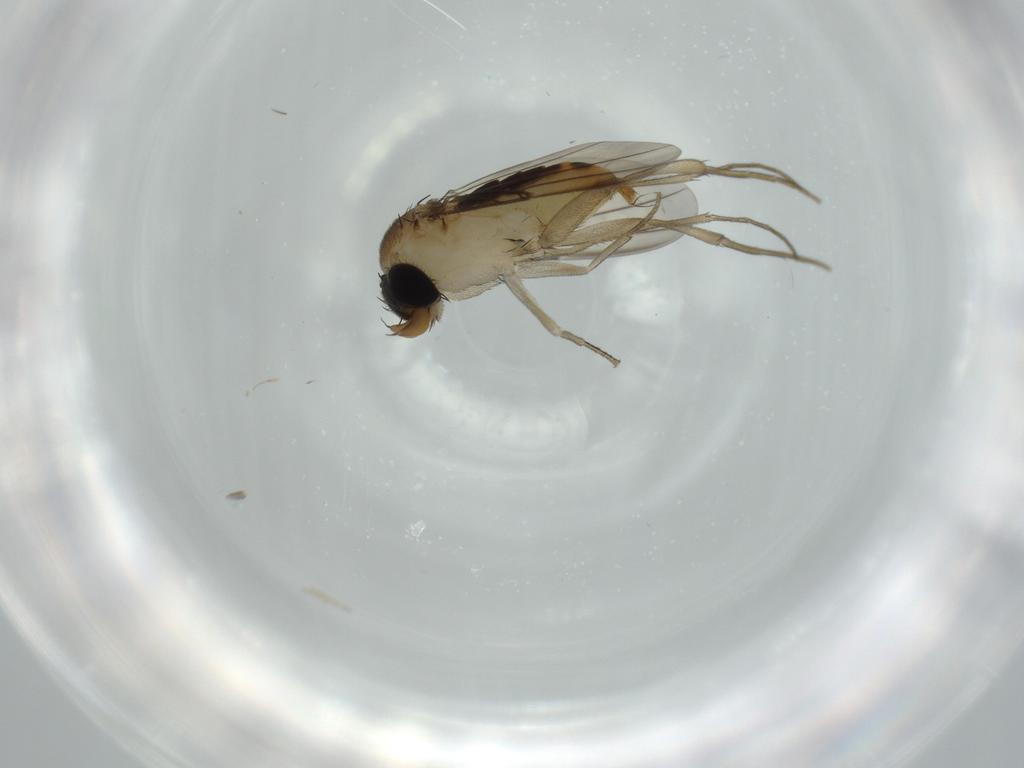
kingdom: Animalia
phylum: Arthropoda
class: Insecta
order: Diptera
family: Phoridae
